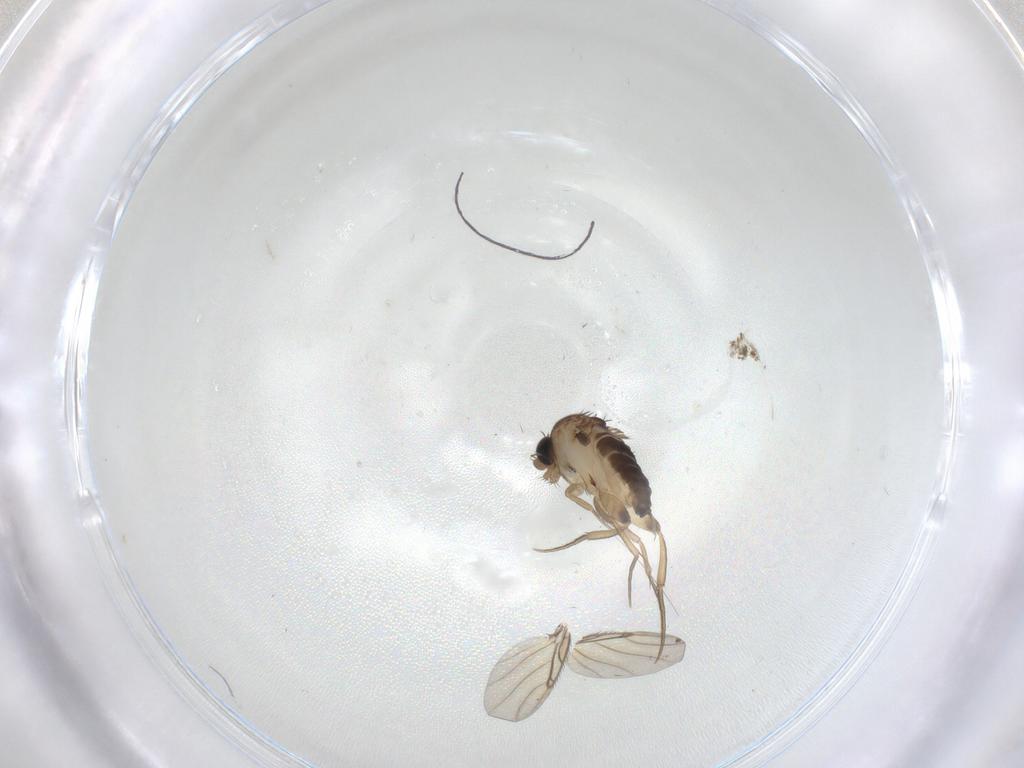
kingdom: Animalia
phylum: Arthropoda
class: Insecta
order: Diptera
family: Phoridae
